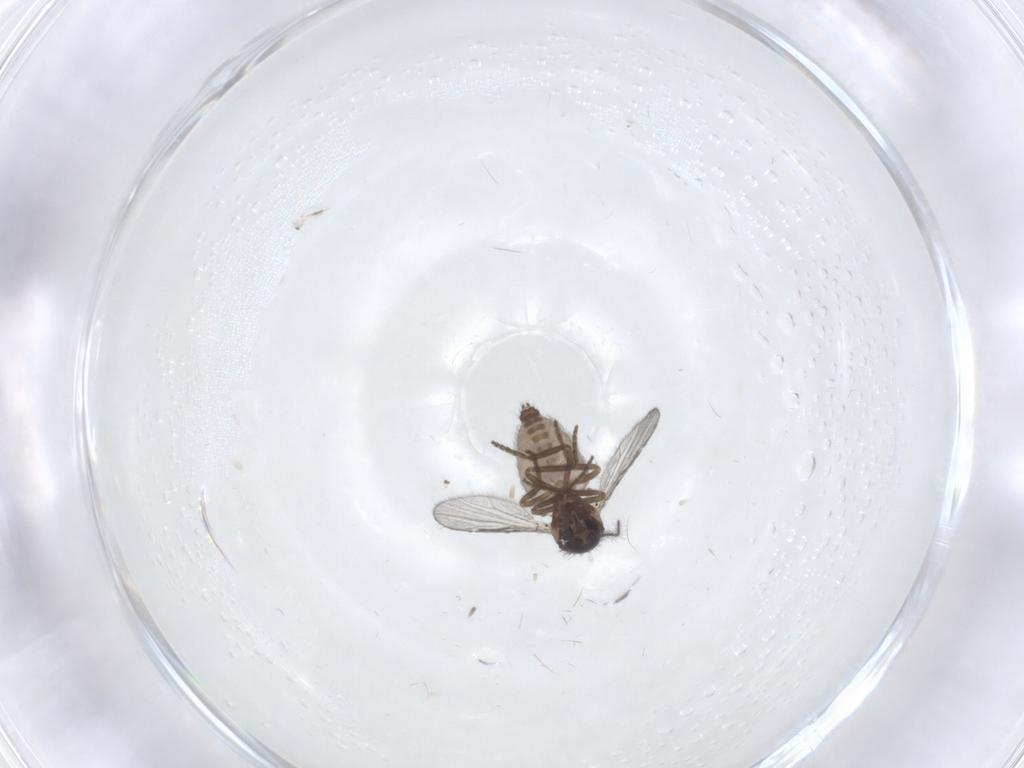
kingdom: Animalia
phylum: Arthropoda
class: Insecta
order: Diptera
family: Chironomidae
